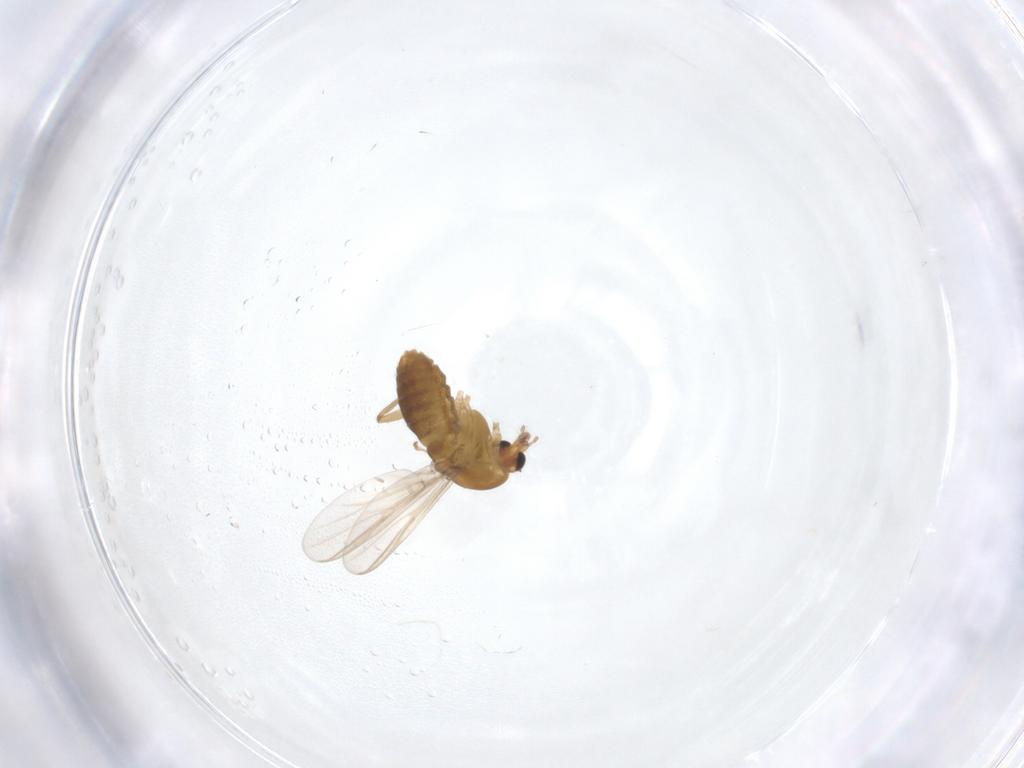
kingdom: Animalia
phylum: Arthropoda
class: Insecta
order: Diptera
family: Chironomidae
